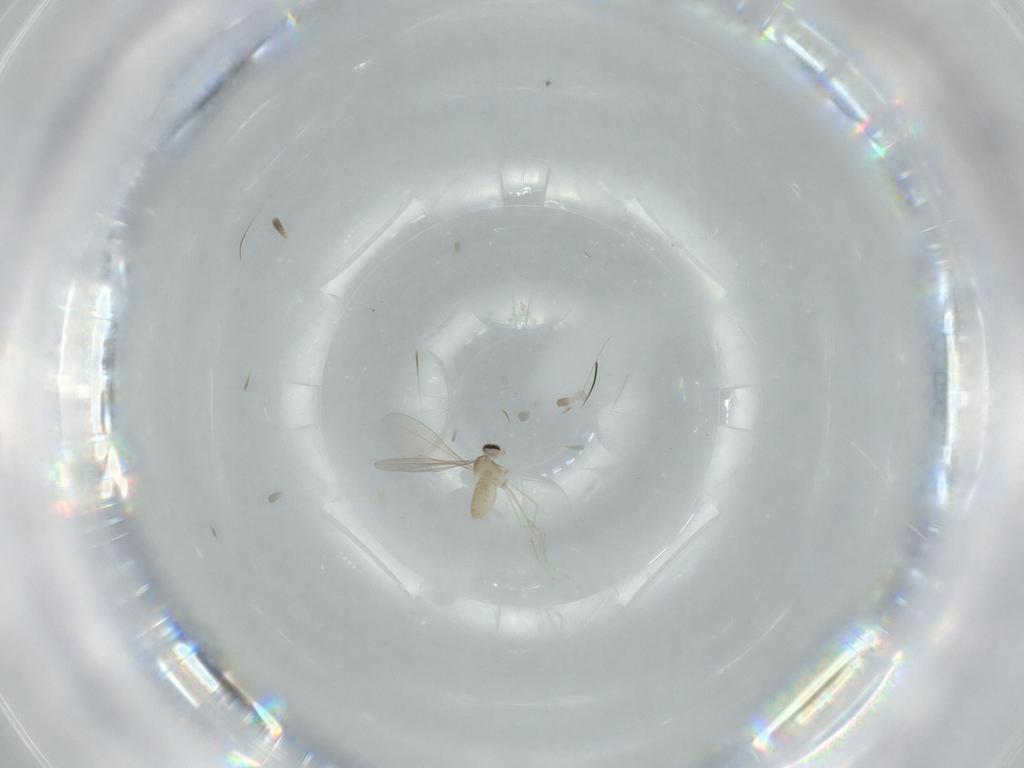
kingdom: Animalia
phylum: Arthropoda
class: Insecta
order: Diptera
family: Cecidomyiidae
